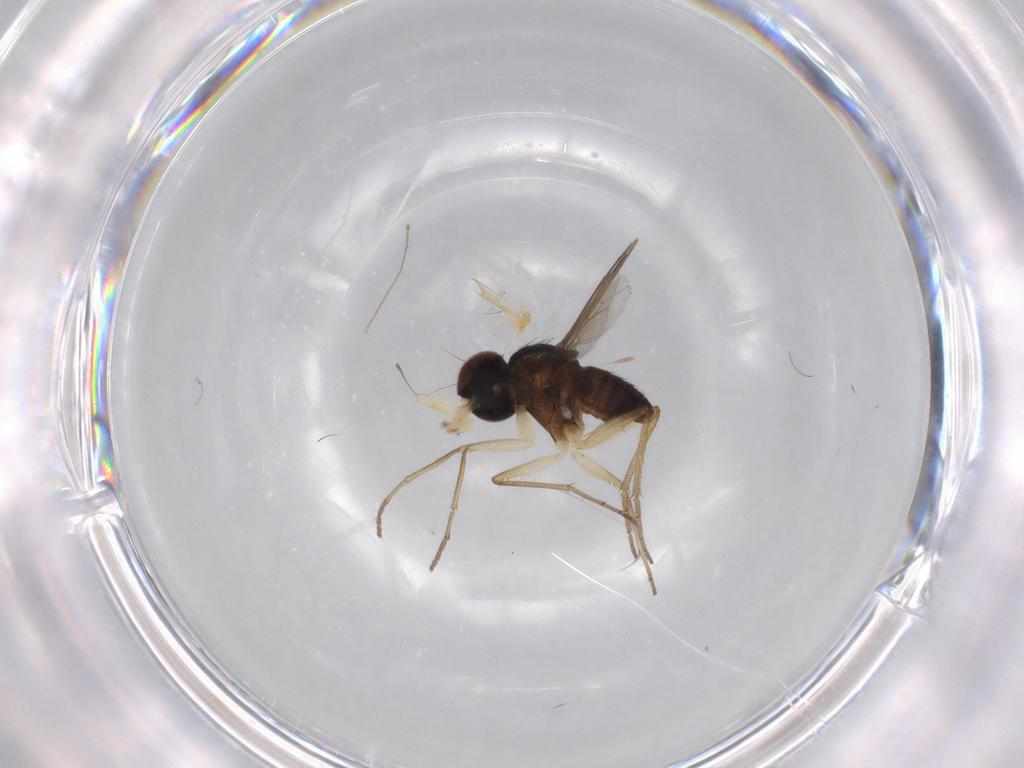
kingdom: Animalia
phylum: Arthropoda
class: Insecta
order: Diptera
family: Dolichopodidae
